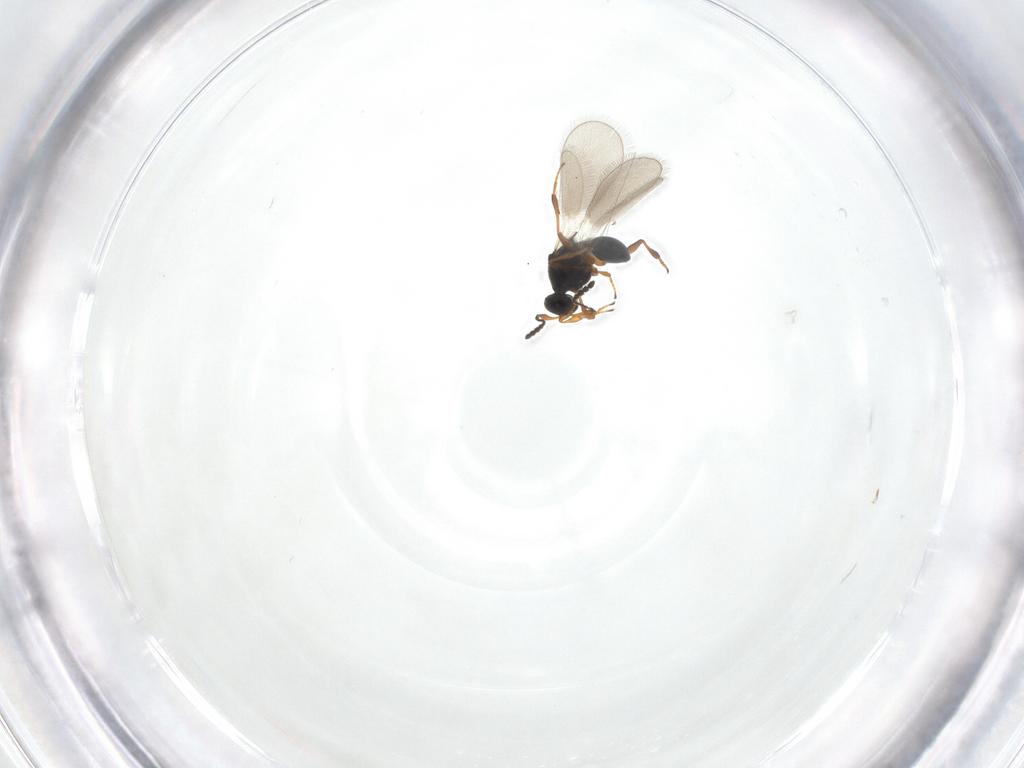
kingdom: Animalia
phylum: Arthropoda
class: Insecta
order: Hymenoptera
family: Platygastridae
